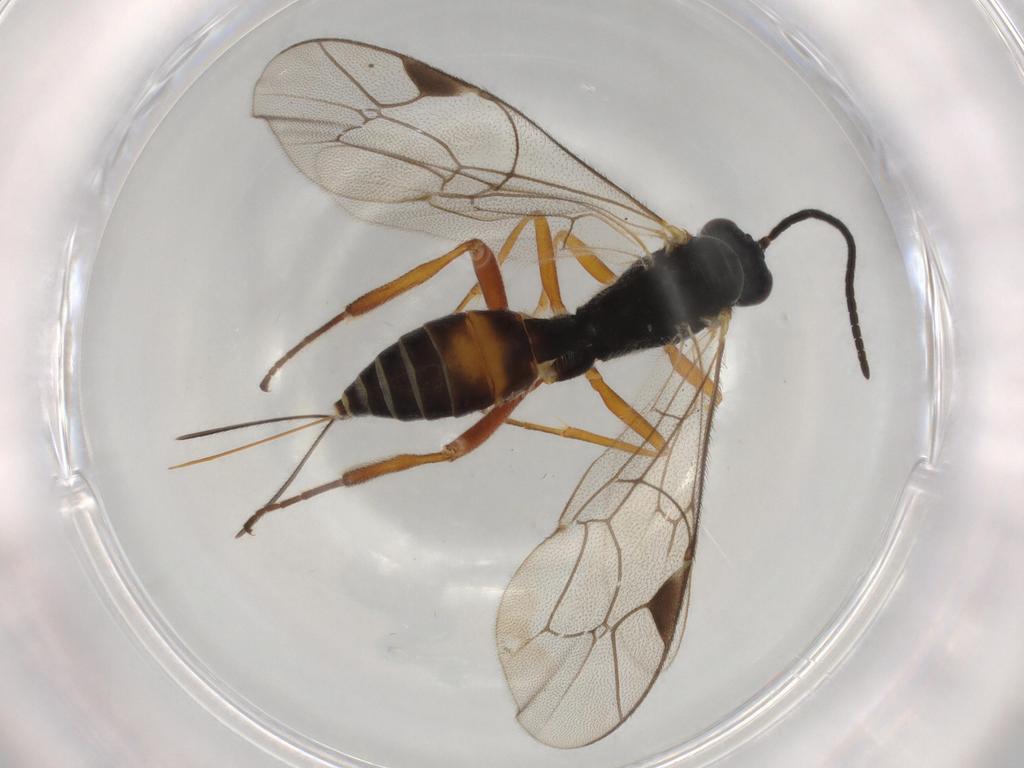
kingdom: Animalia
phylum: Arthropoda
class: Insecta
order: Hymenoptera
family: Ichneumonidae
